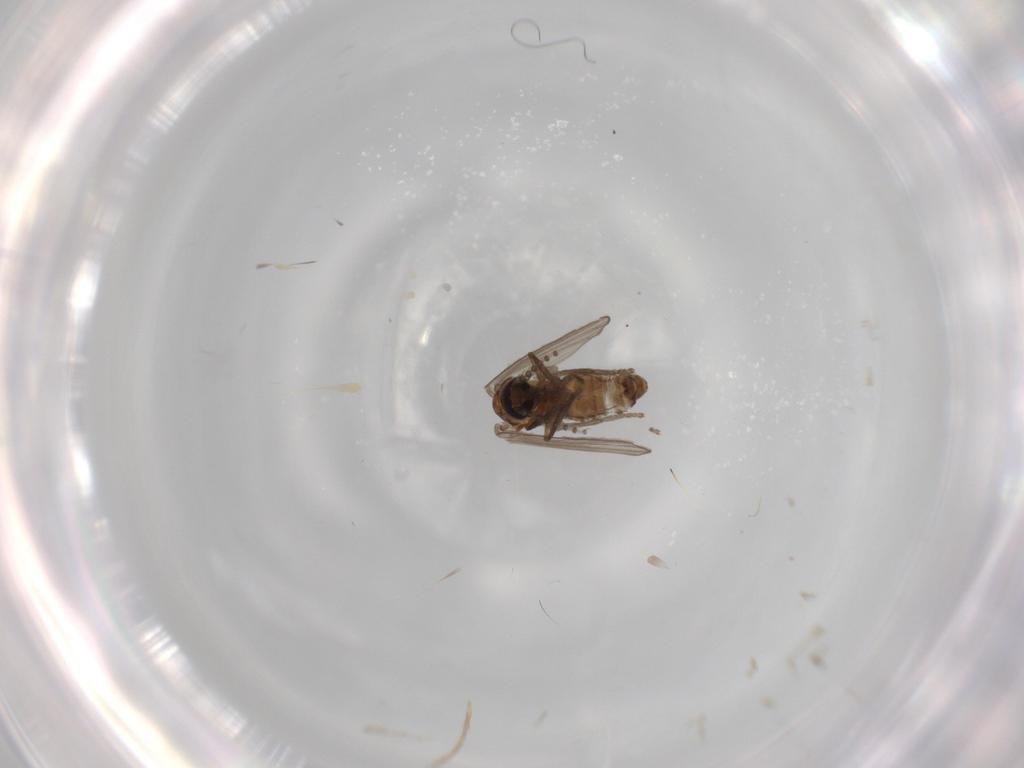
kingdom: Animalia
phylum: Arthropoda
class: Insecta
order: Diptera
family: Psychodidae
